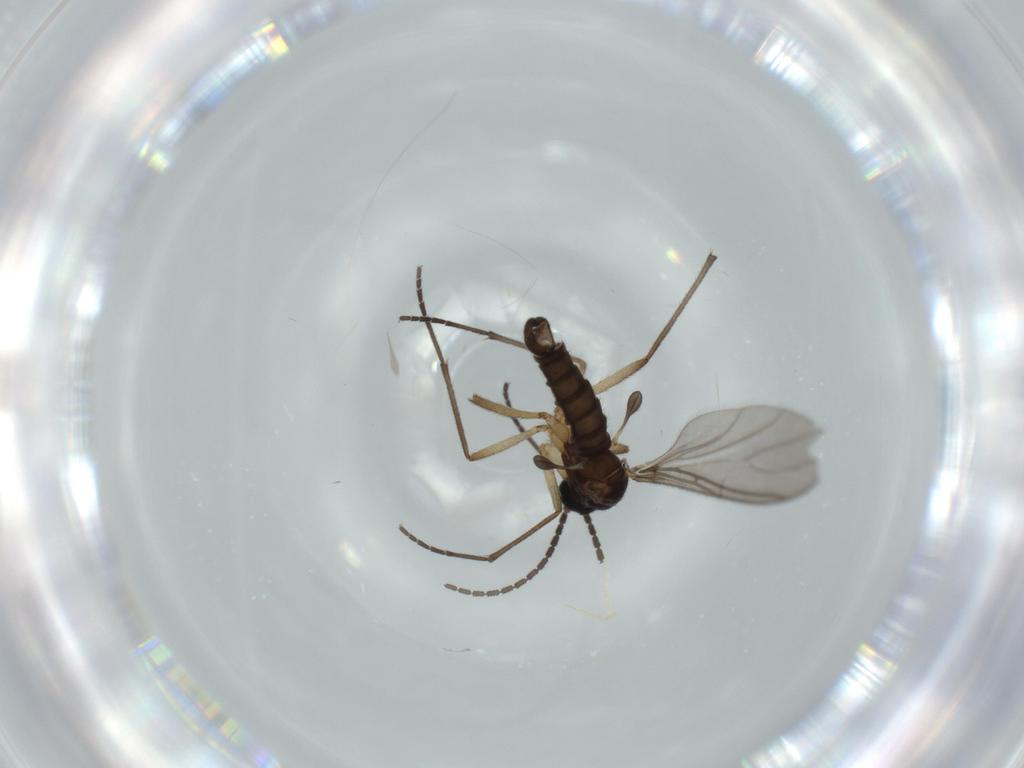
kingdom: Animalia
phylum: Arthropoda
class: Insecta
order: Diptera
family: Sciaridae
